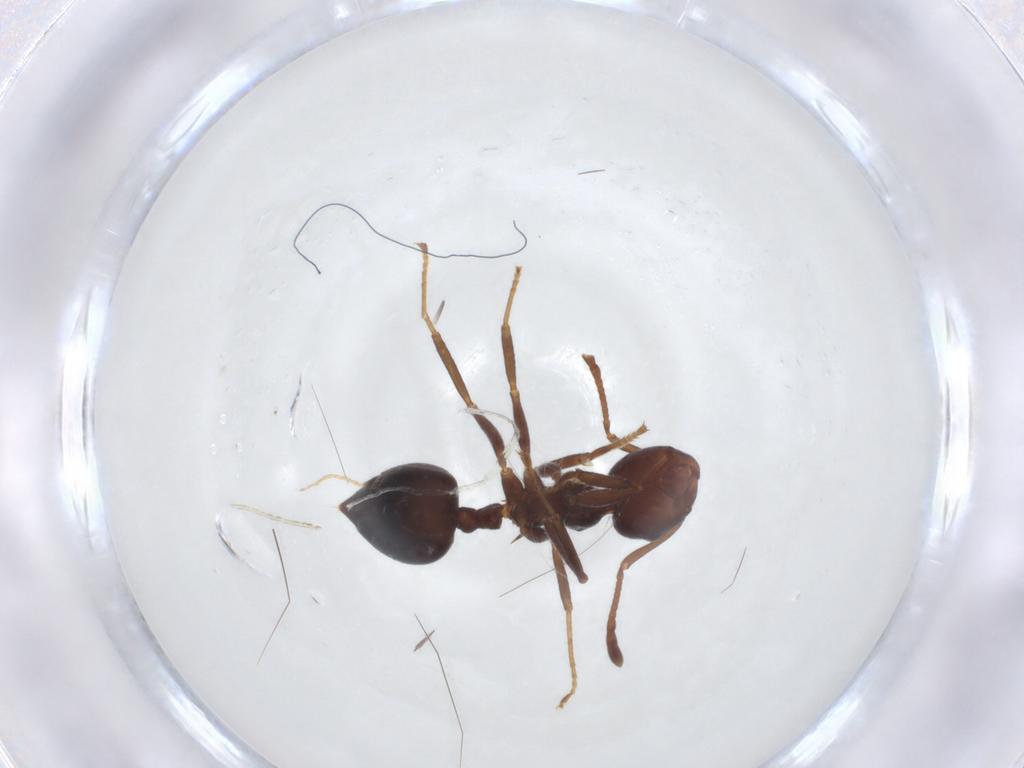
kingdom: Animalia
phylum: Arthropoda
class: Insecta
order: Hymenoptera
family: Formicidae
